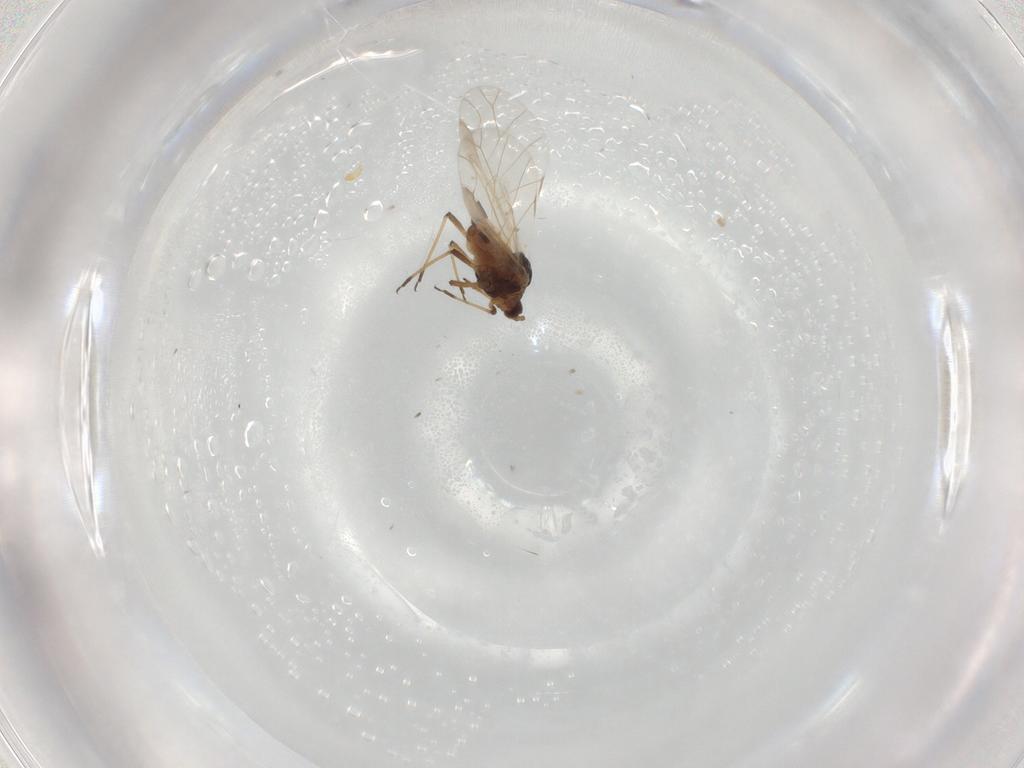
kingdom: Animalia
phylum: Arthropoda
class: Insecta
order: Hemiptera
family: Aphididae
